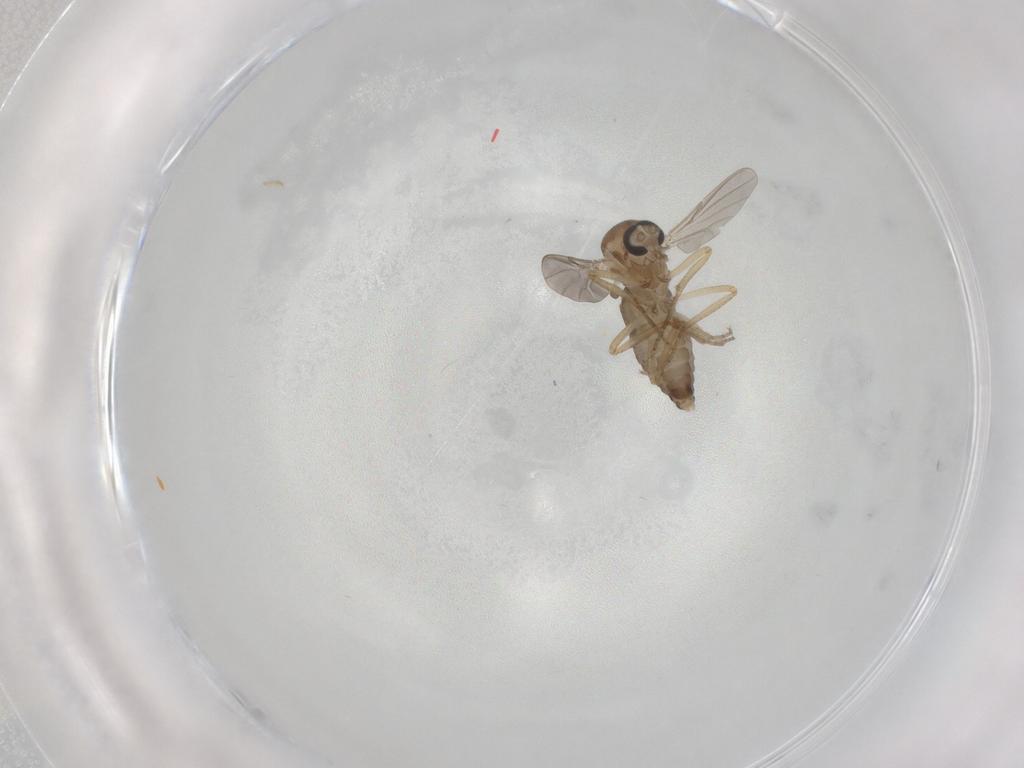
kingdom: Animalia
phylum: Arthropoda
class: Insecta
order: Diptera
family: Ceratopogonidae
